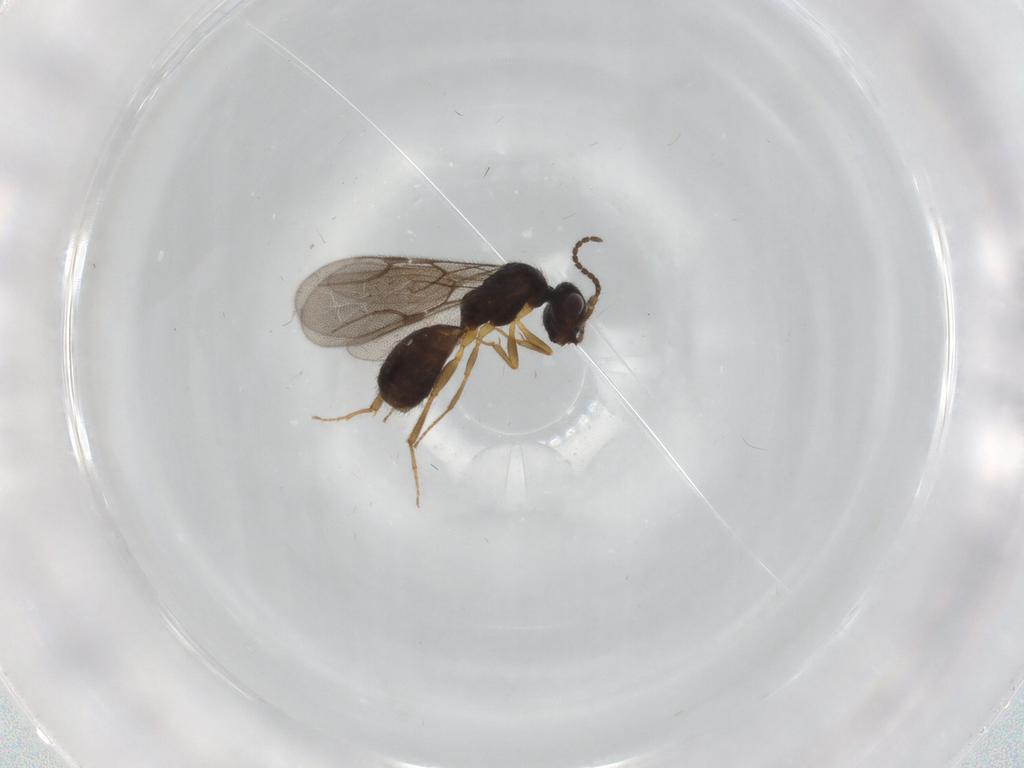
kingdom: Animalia
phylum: Arthropoda
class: Insecta
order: Hymenoptera
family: Bethylidae
